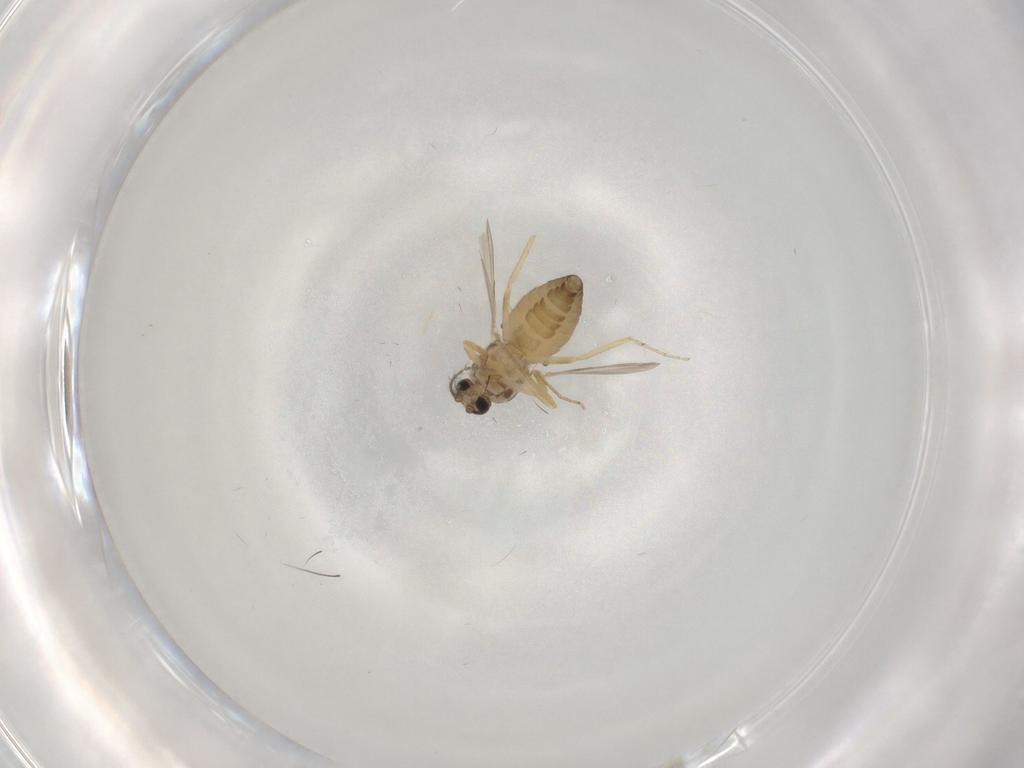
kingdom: Animalia
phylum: Arthropoda
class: Insecta
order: Diptera
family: Ceratopogonidae
